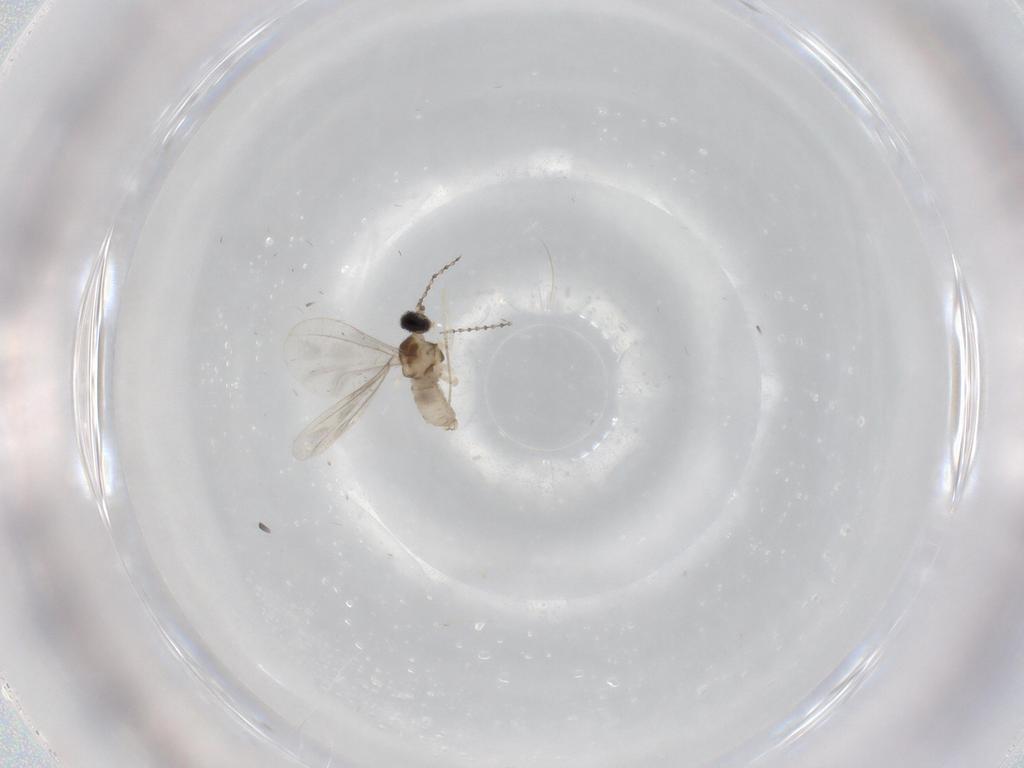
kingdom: Animalia
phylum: Arthropoda
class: Insecta
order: Diptera
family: Cecidomyiidae
